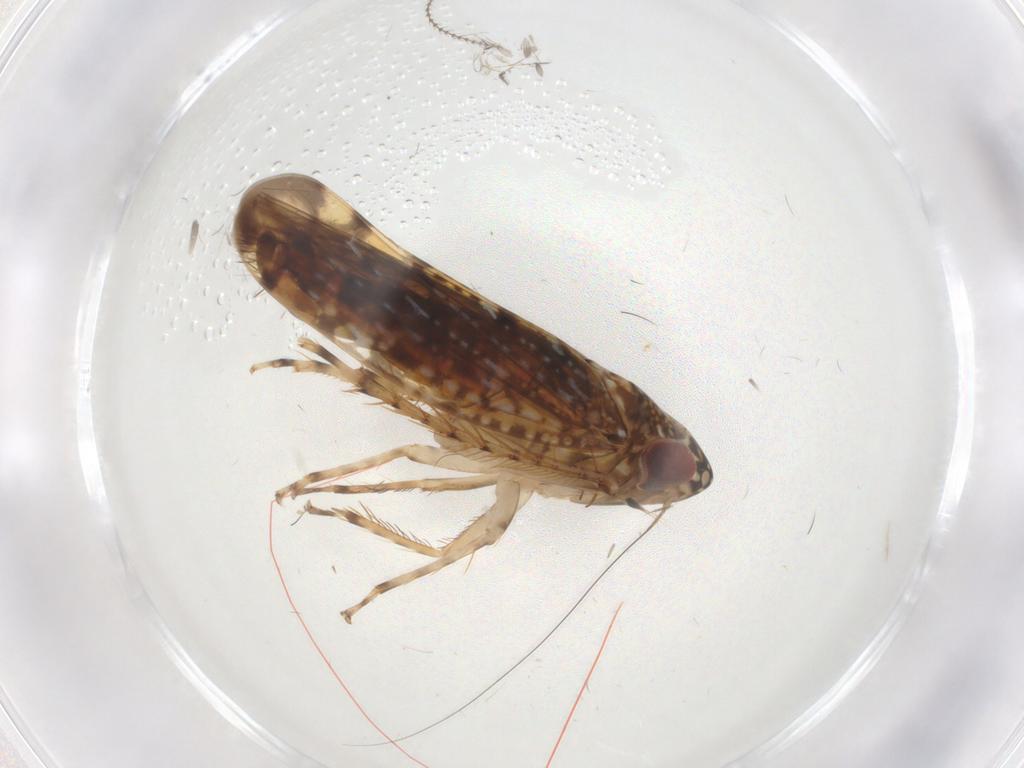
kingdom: Animalia
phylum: Arthropoda
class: Insecta
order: Hemiptera
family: Cicadellidae
